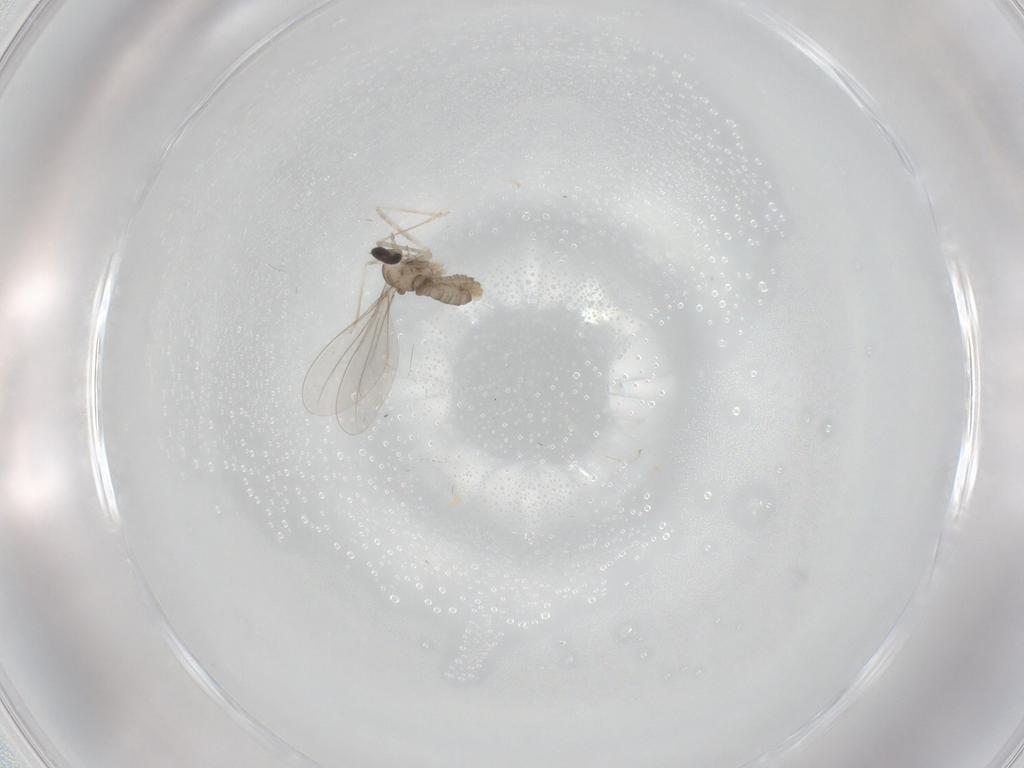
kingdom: Animalia
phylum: Arthropoda
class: Insecta
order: Diptera
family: Cecidomyiidae
